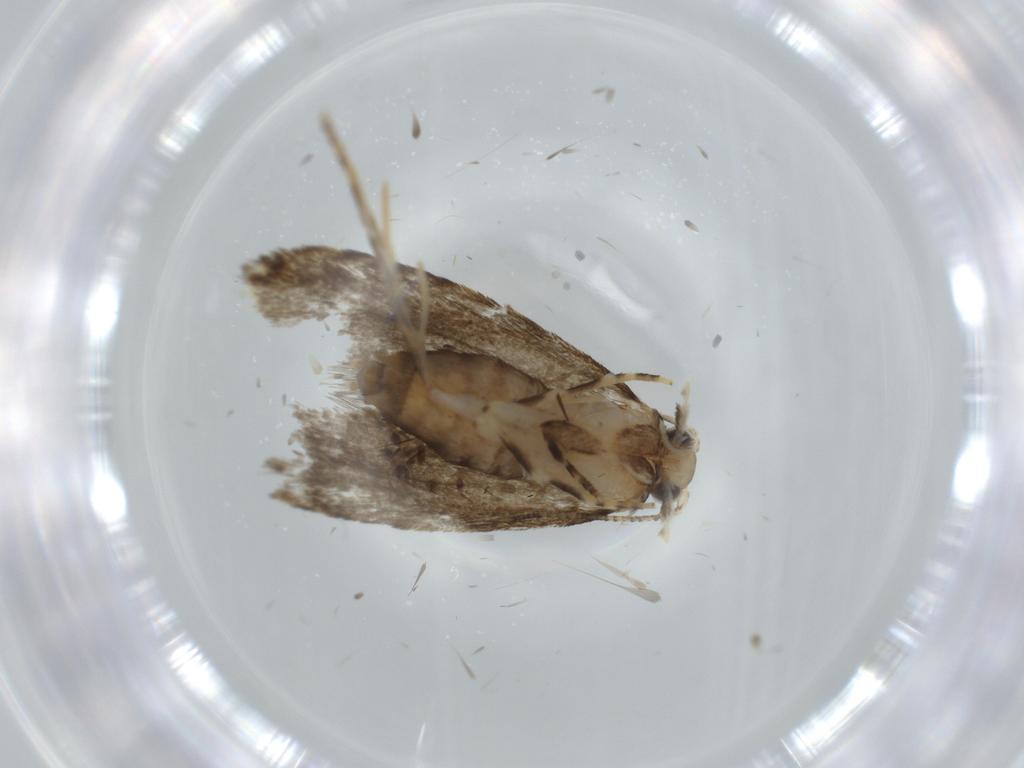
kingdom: Animalia
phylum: Arthropoda
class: Insecta
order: Lepidoptera
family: Tineidae
